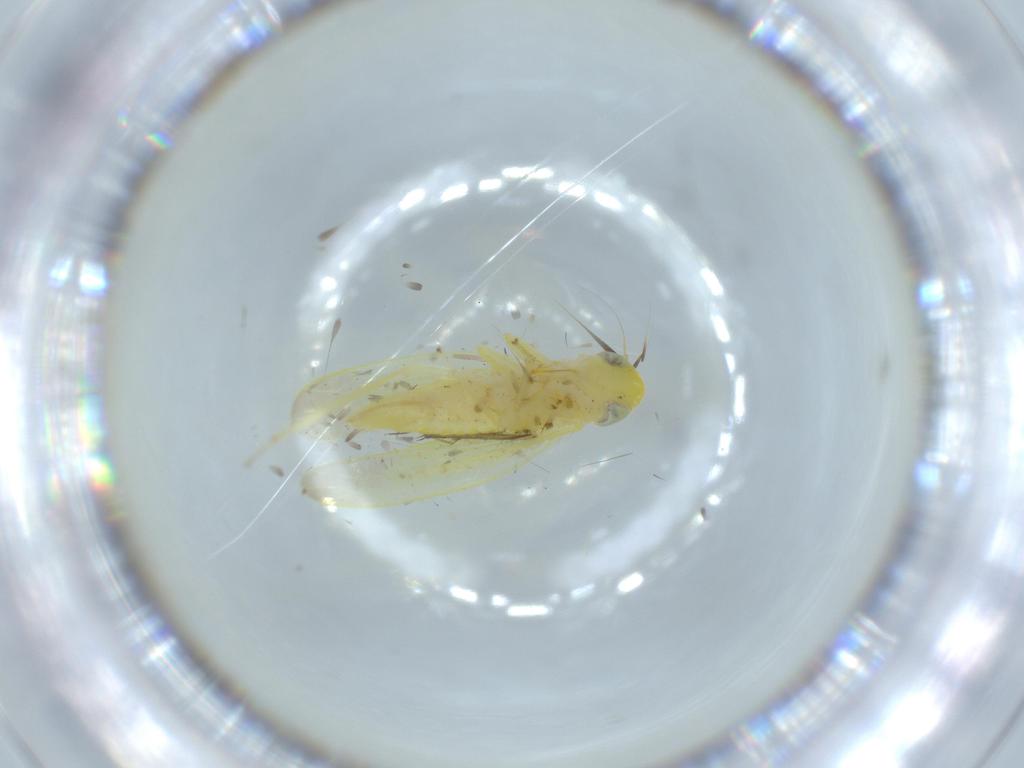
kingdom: Animalia
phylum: Arthropoda
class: Insecta
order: Hemiptera
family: Cicadellidae
